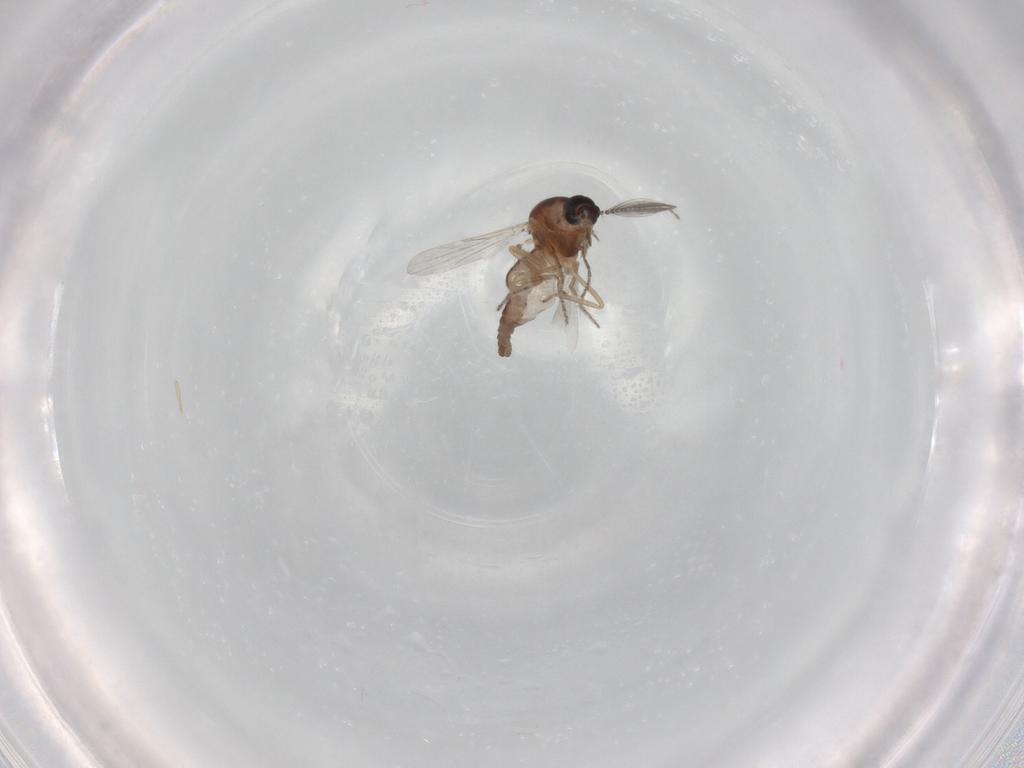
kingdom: Animalia
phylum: Arthropoda
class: Insecta
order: Diptera
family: Ceratopogonidae
